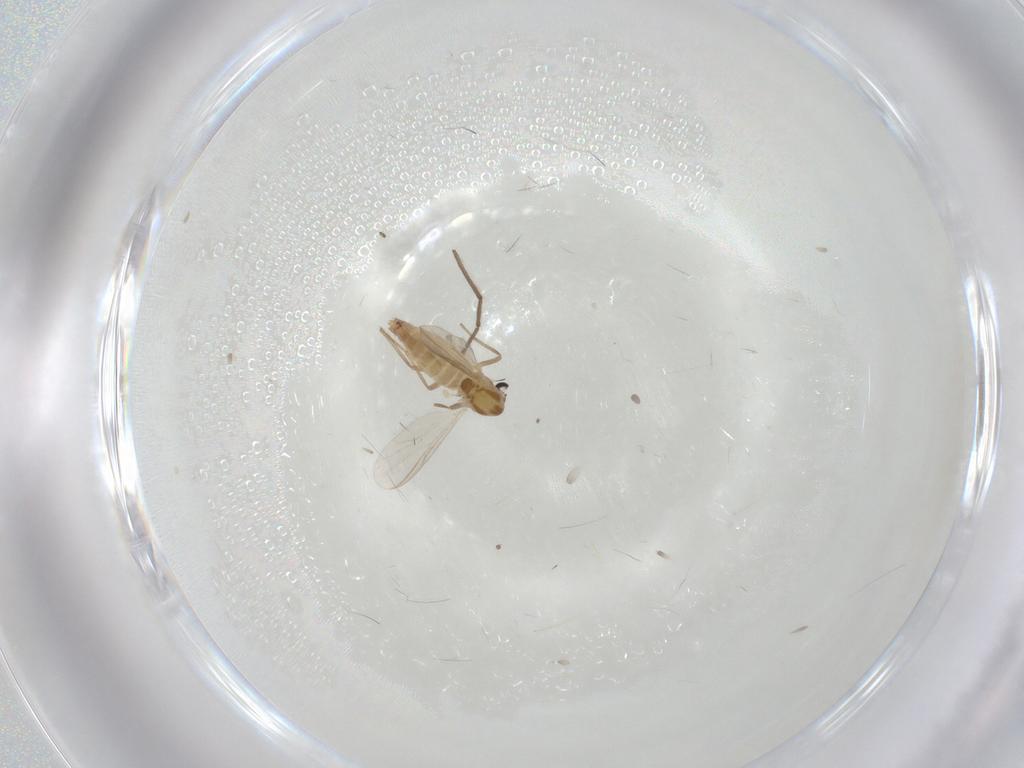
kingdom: Animalia
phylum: Arthropoda
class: Insecta
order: Diptera
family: Chironomidae
